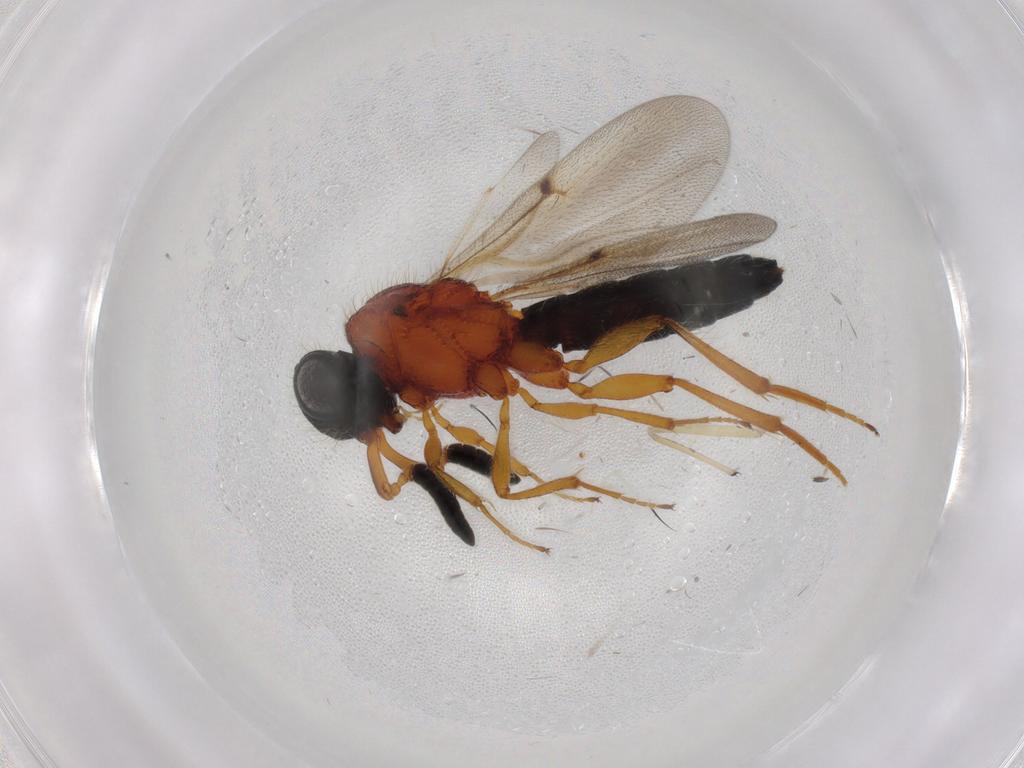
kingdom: Animalia
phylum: Arthropoda
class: Insecta
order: Hymenoptera
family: Scelionidae
